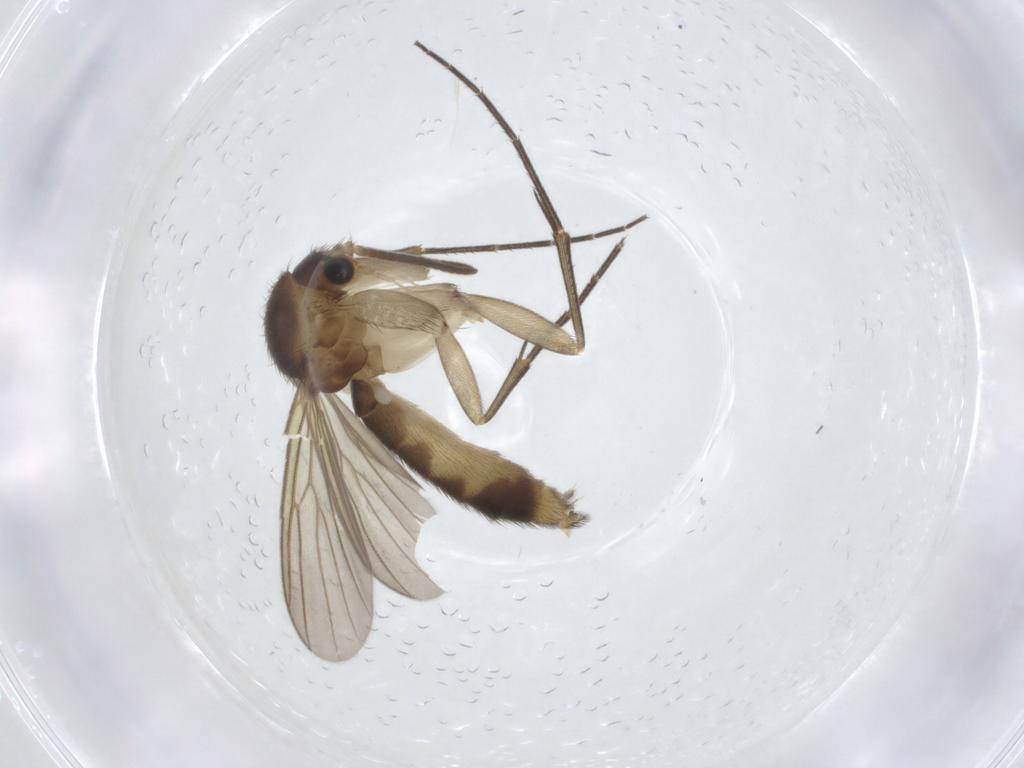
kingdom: Animalia
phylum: Arthropoda
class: Insecta
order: Diptera
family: Mycetophilidae
